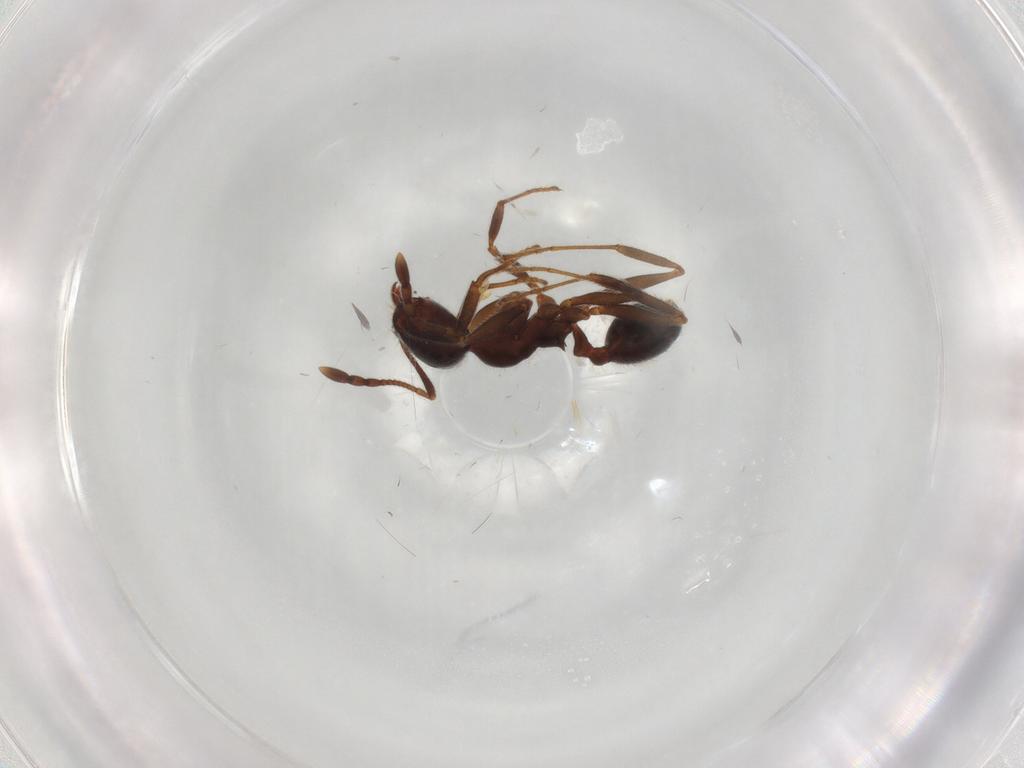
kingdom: Animalia
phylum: Arthropoda
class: Insecta
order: Hymenoptera
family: Formicidae
